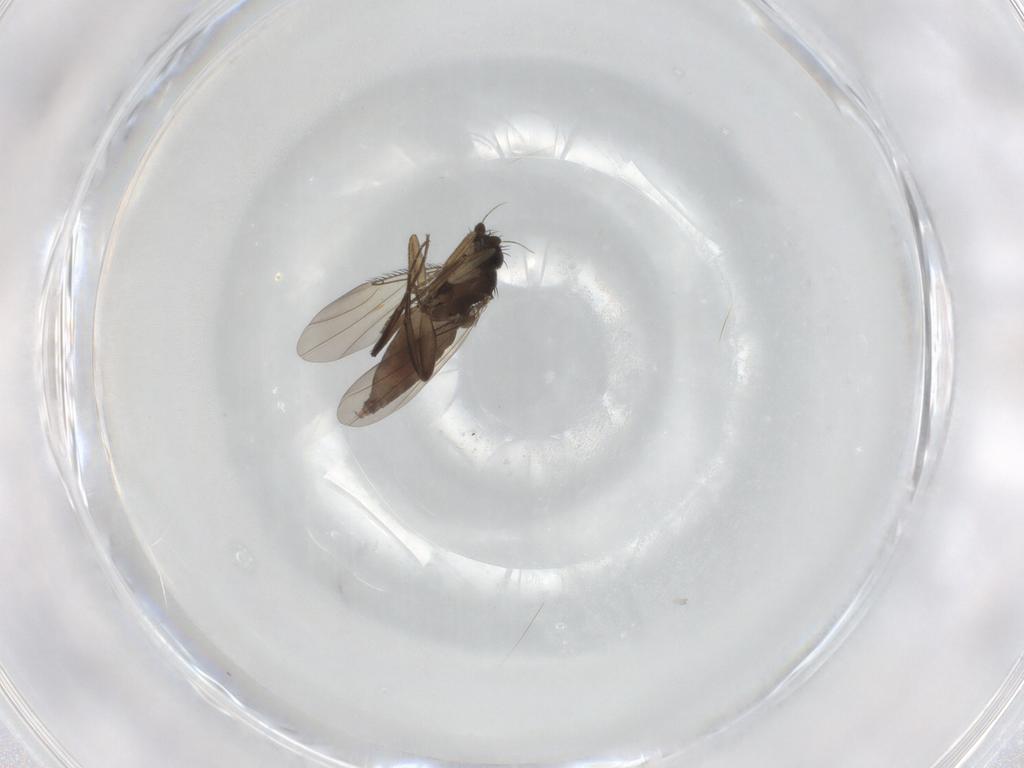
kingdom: Animalia
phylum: Arthropoda
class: Insecta
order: Diptera
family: Phoridae
